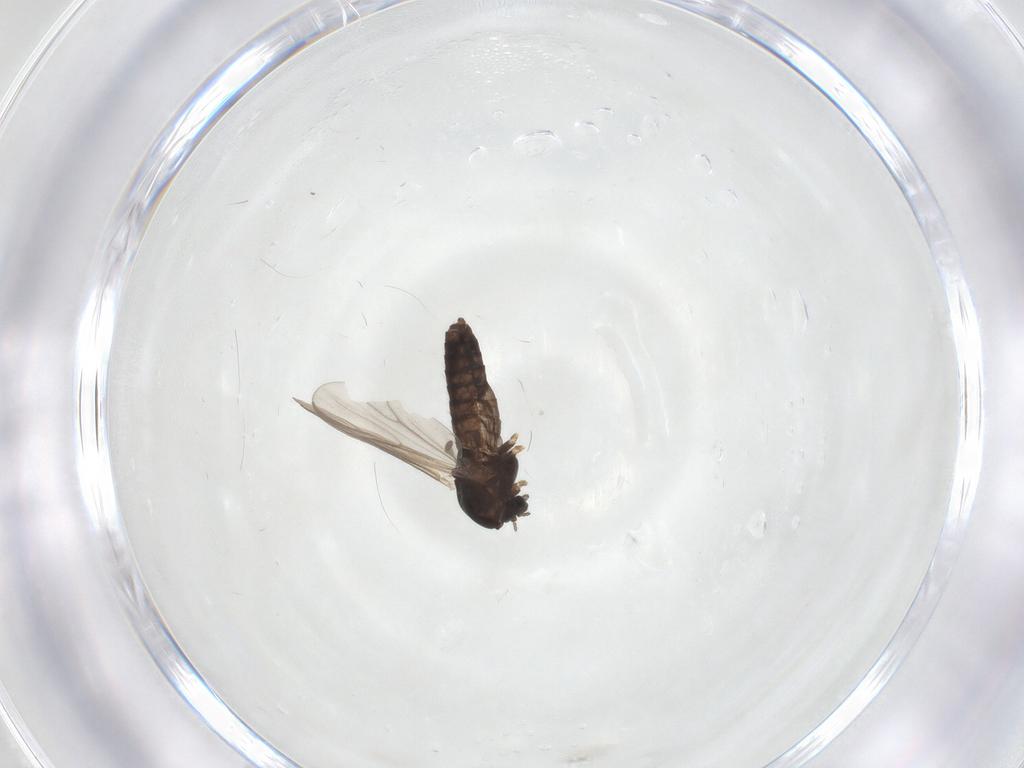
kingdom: Animalia
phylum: Arthropoda
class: Insecta
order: Diptera
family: Chironomidae
